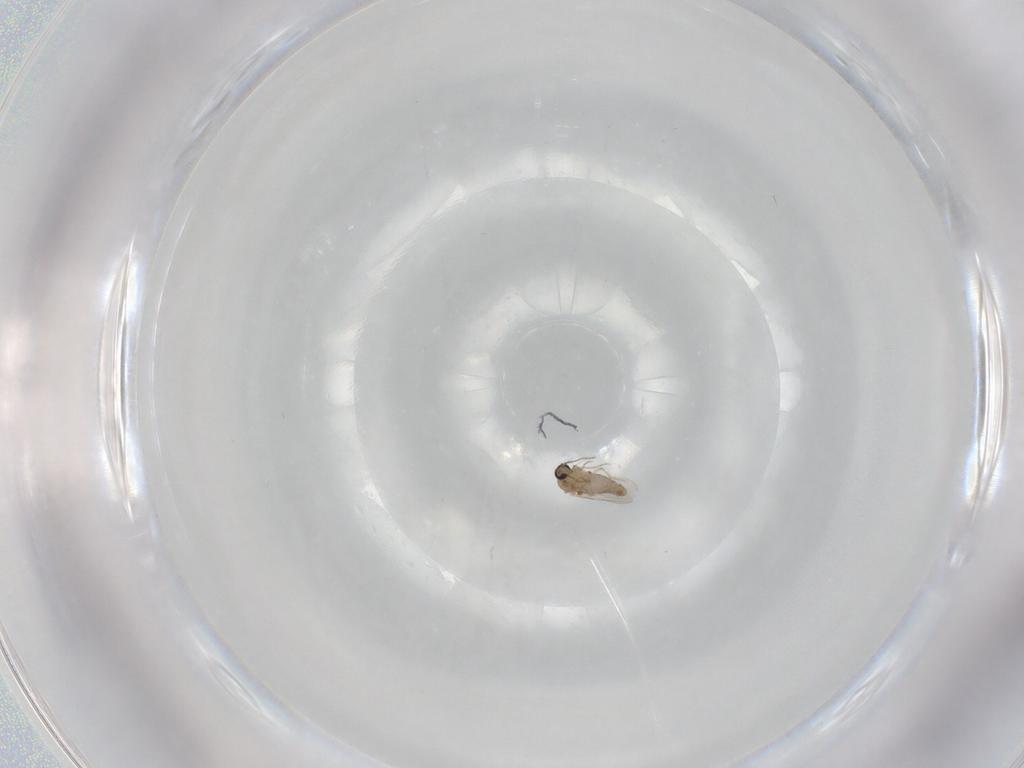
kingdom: Animalia
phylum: Arthropoda
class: Insecta
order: Diptera
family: Ceratopogonidae
